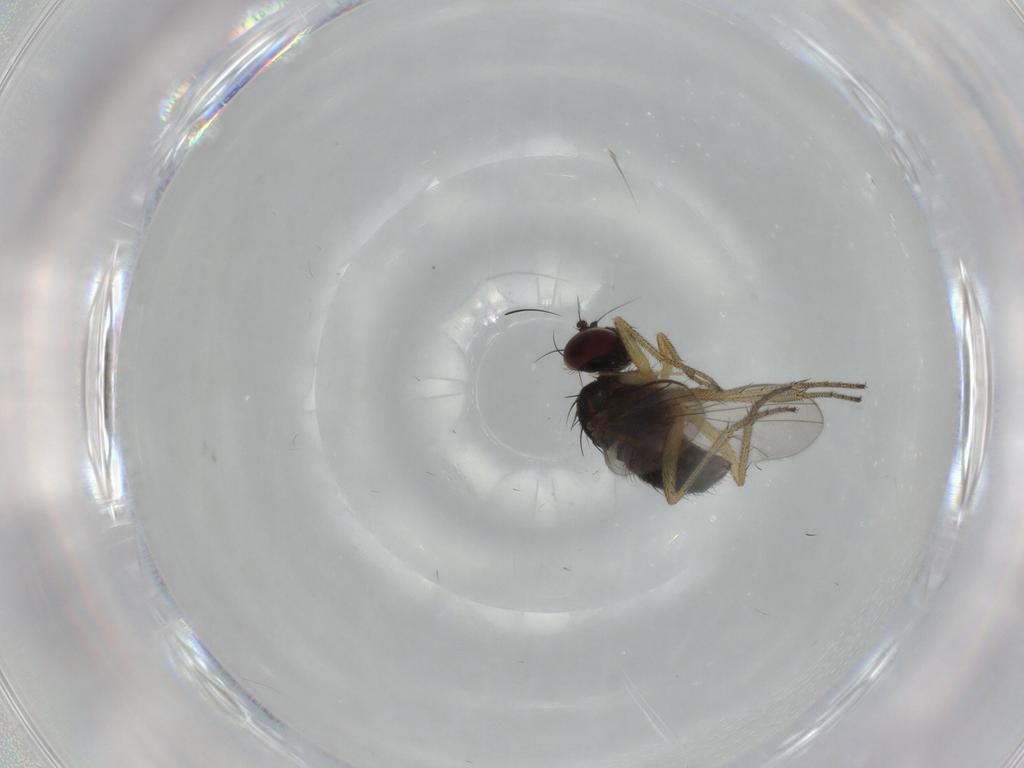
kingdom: Animalia
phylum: Arthropoda
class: Insecta
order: Diptera
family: Dolichopodidae
